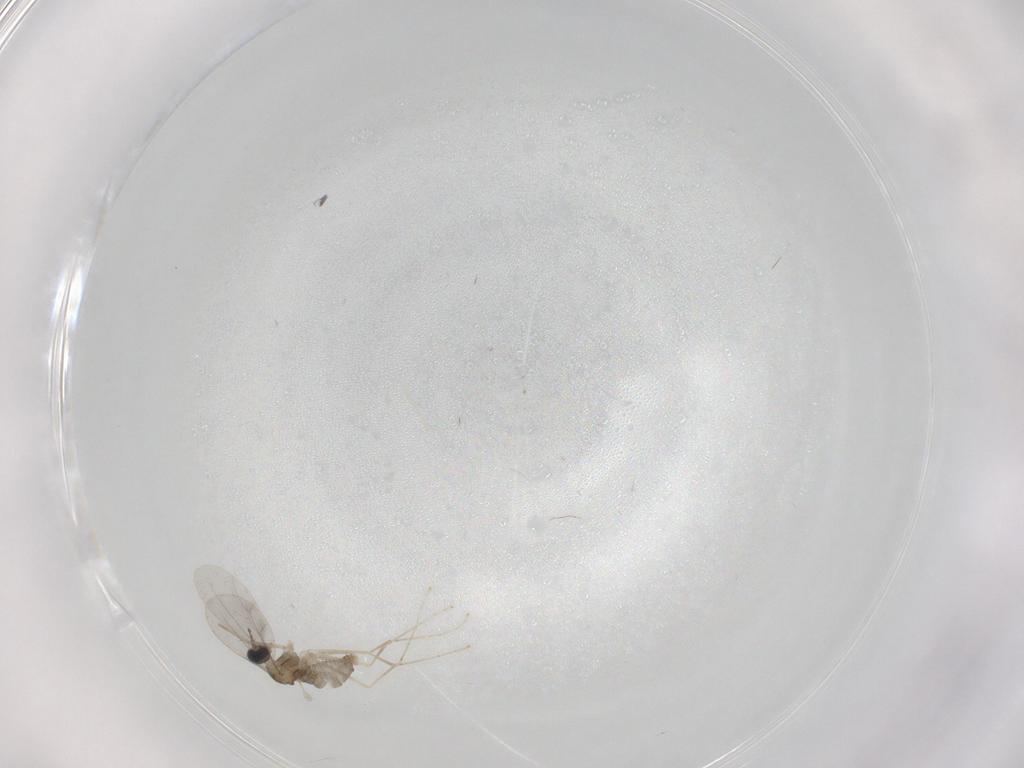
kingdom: Animalia
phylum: Arthropoda
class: Insecta
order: Diptera
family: Cecidomyiidae
